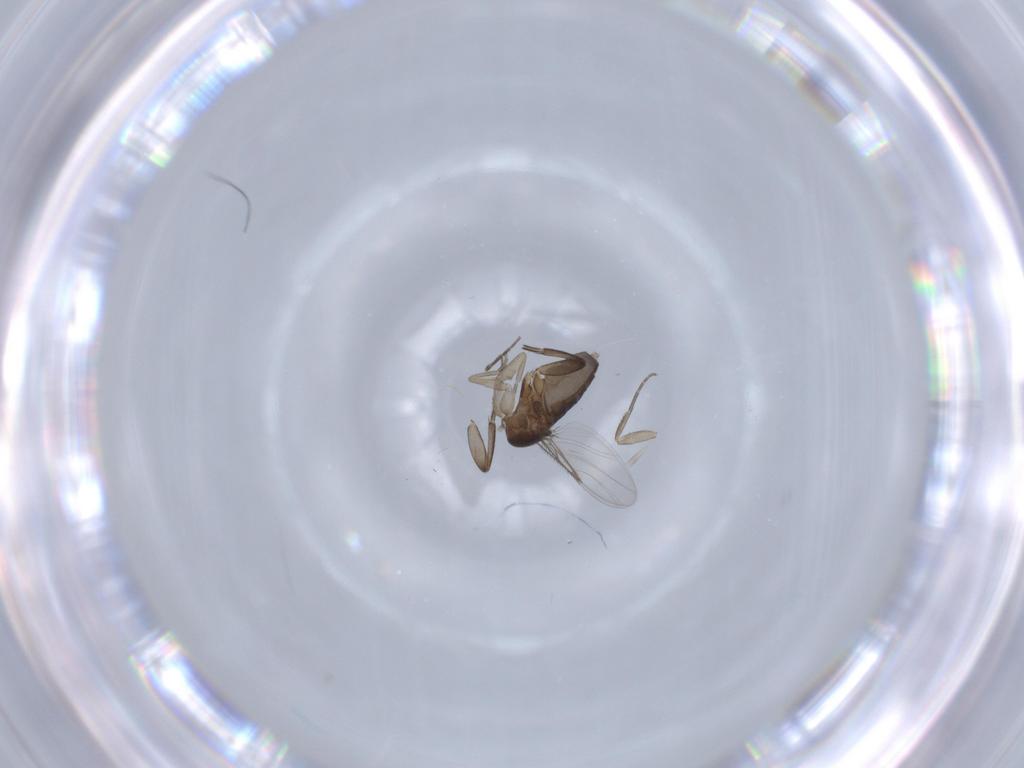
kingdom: Animalia
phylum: Arthropoda
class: Insecta
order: Diptera
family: Phoridae
